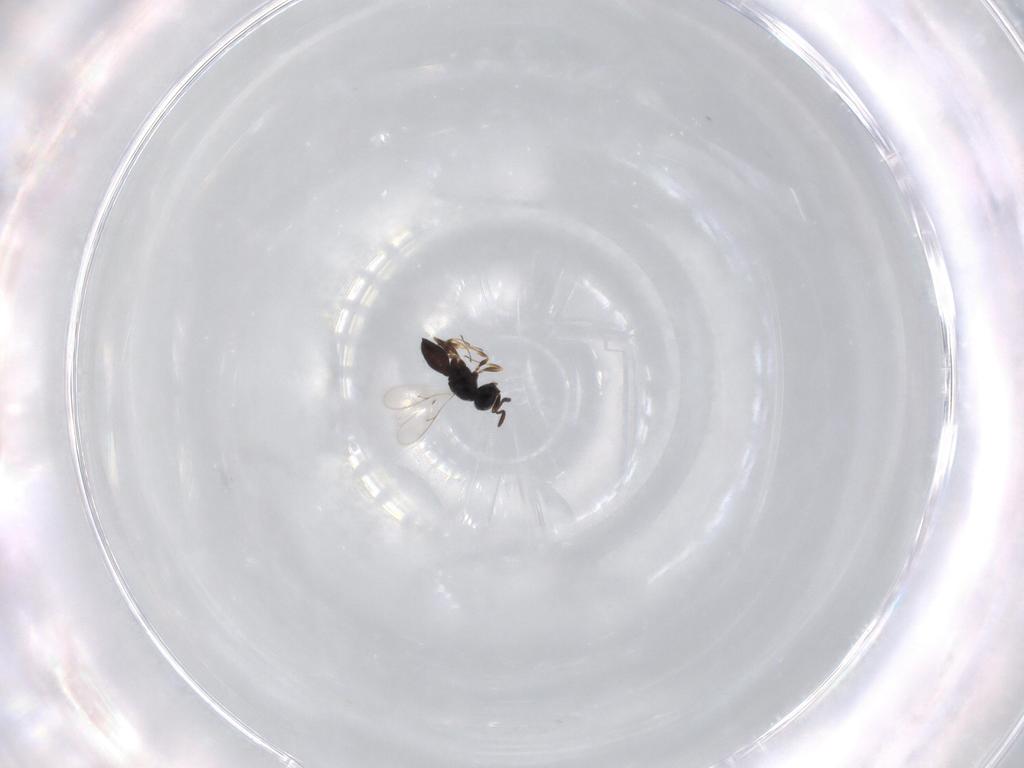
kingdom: Animalia
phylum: Arthropoda
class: Insecta
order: Hymenoptera
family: Scelionidae
